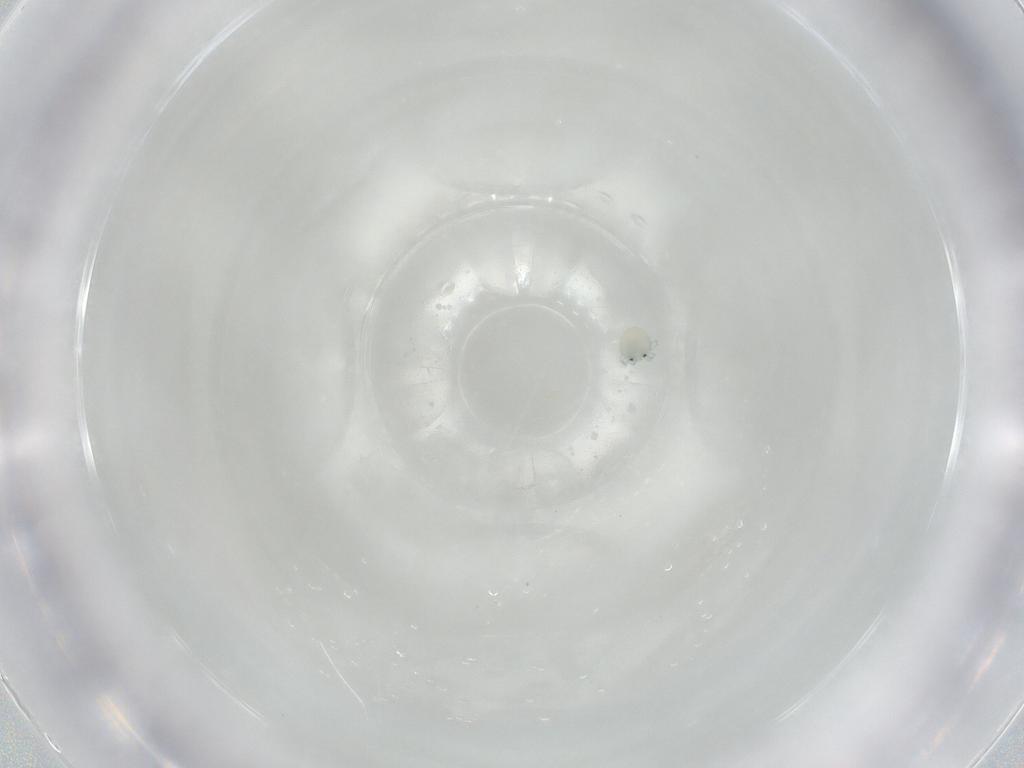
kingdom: Animalia
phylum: Arthropoda
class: Arachnida
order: Trombidiformes
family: Arrenuridae
